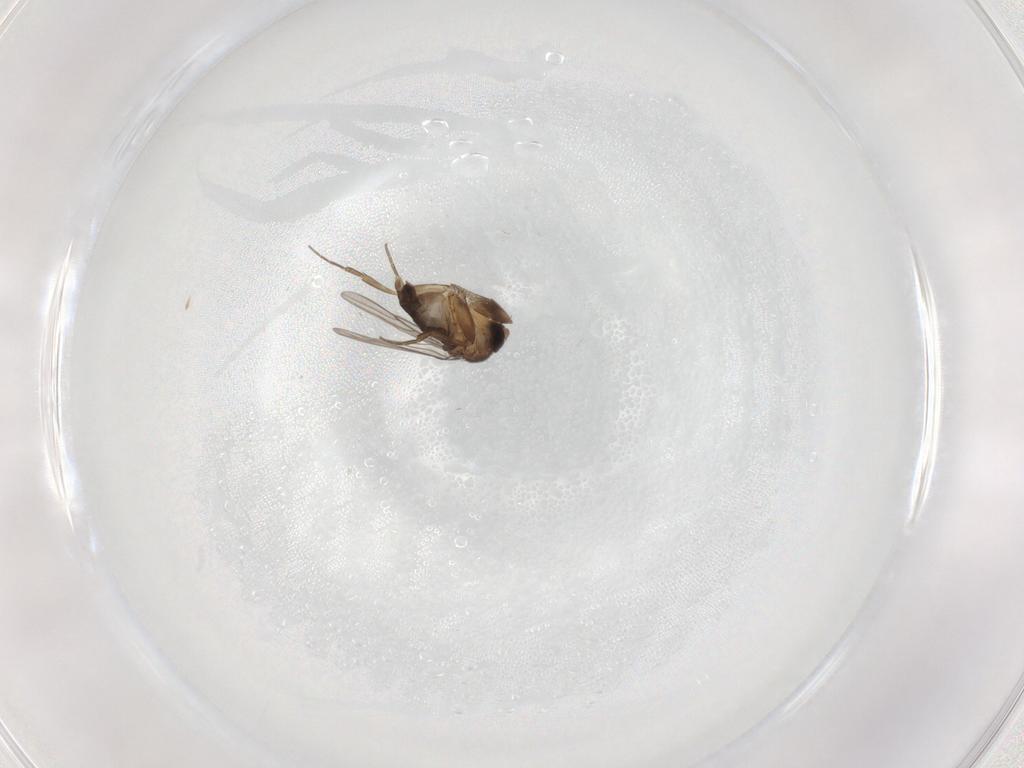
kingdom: Animalia
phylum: Arthropoda
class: Insecta
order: Diptera
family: Phoridae
